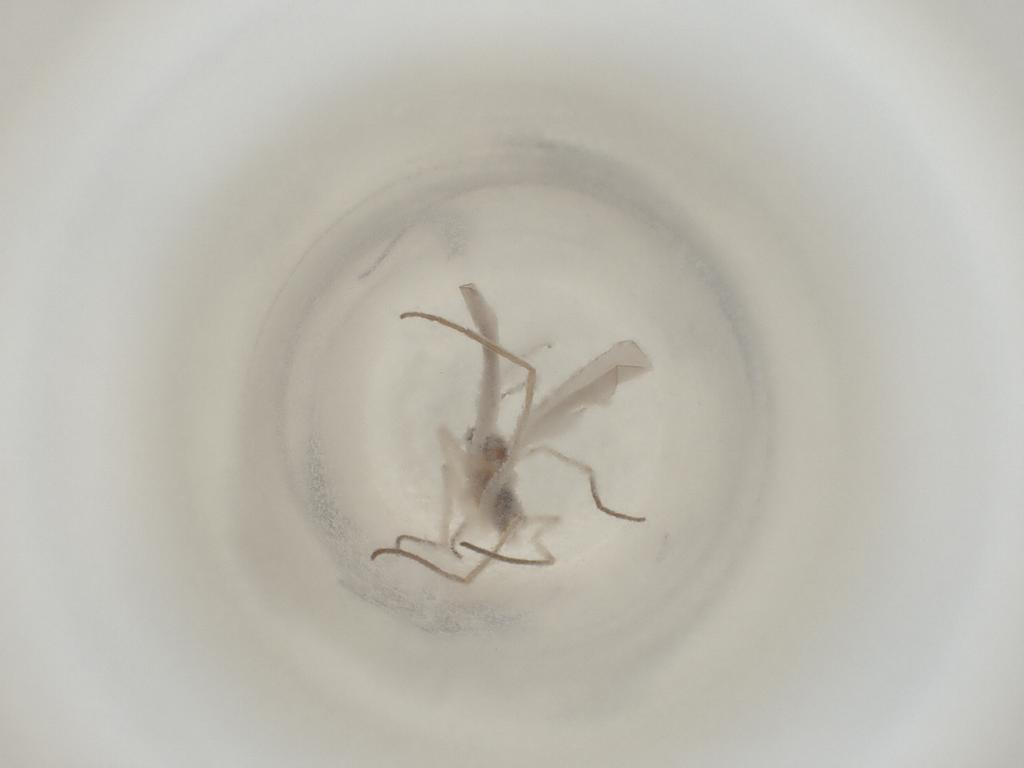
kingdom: Animalia
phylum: Arthropoda
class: Insecta
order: Diptera
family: Cecidomyiidae
